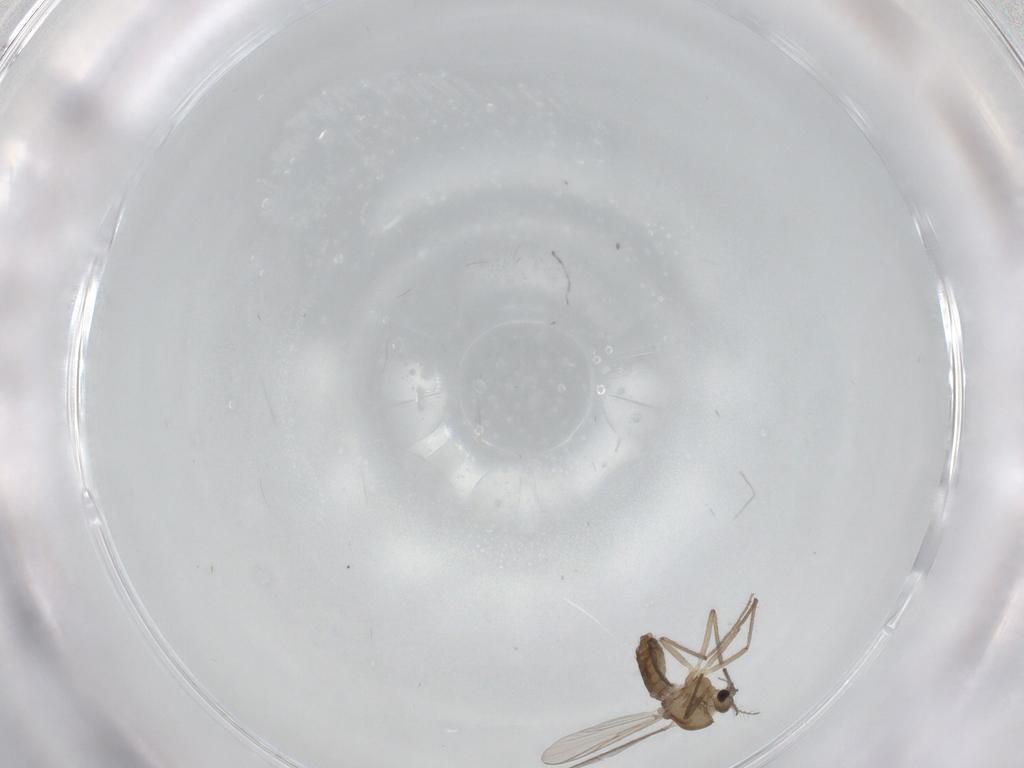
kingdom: Animalia
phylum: Arthropoda
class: Insecta
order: Diptera
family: Chironomidae
